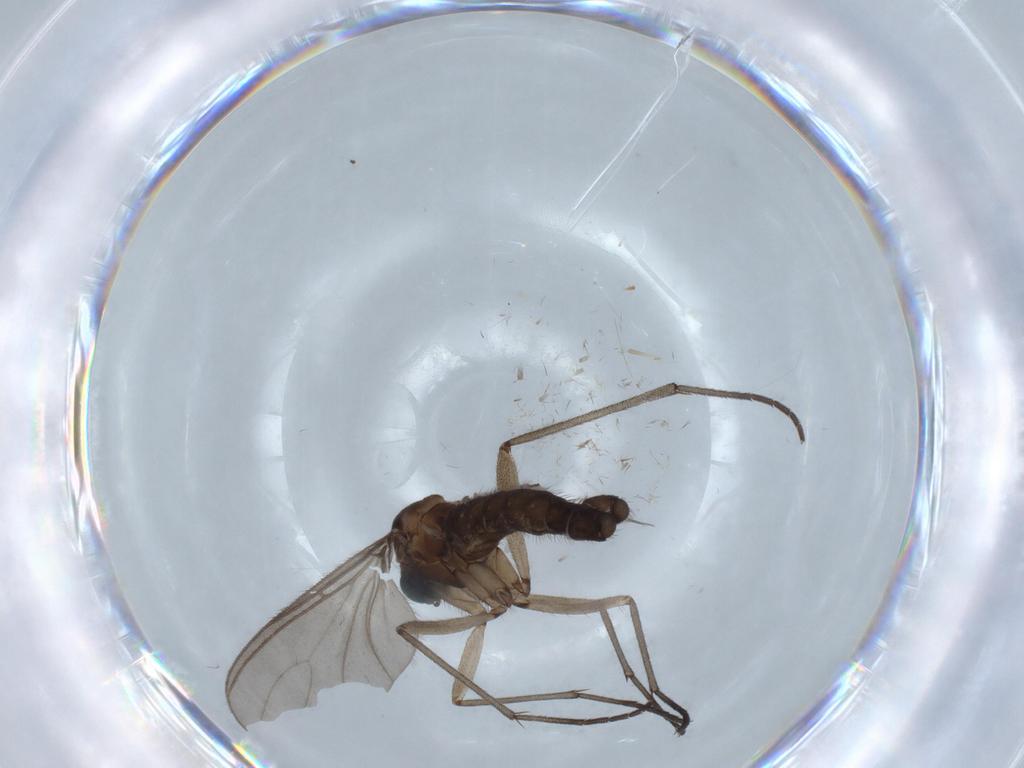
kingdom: Animalia
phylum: Arthropoda
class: Insecta
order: Diptera
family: Sciaridae
